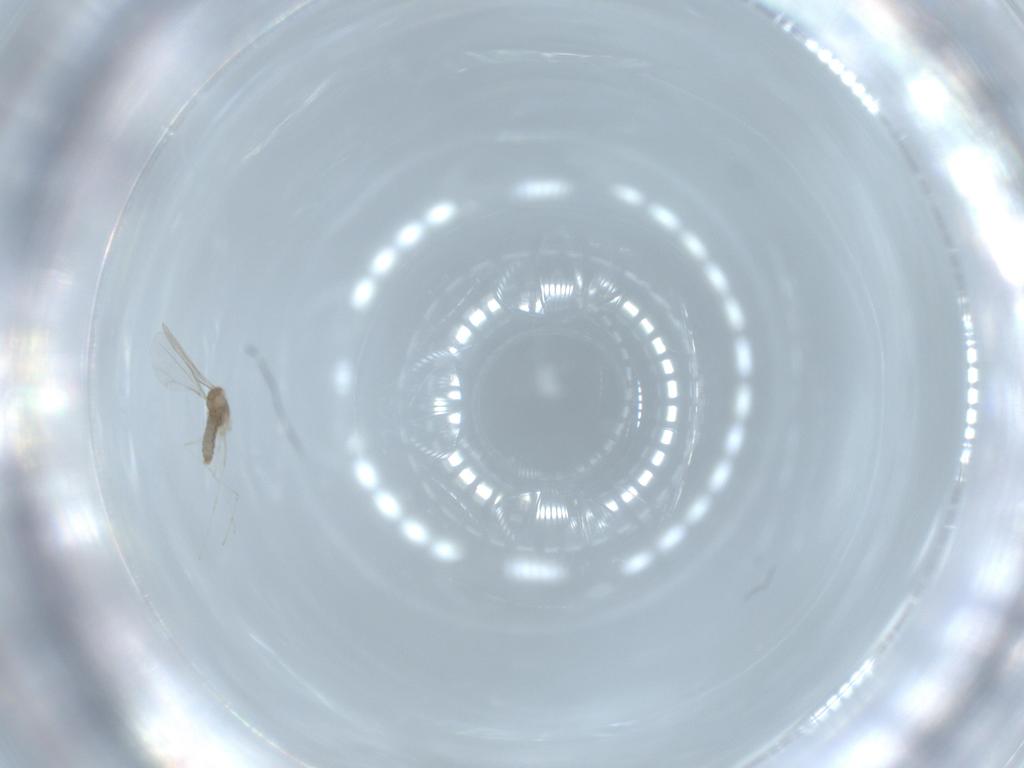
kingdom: Animalia
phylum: Arthropoda
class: Insecta
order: Diptera
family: Cecidomyiidae
